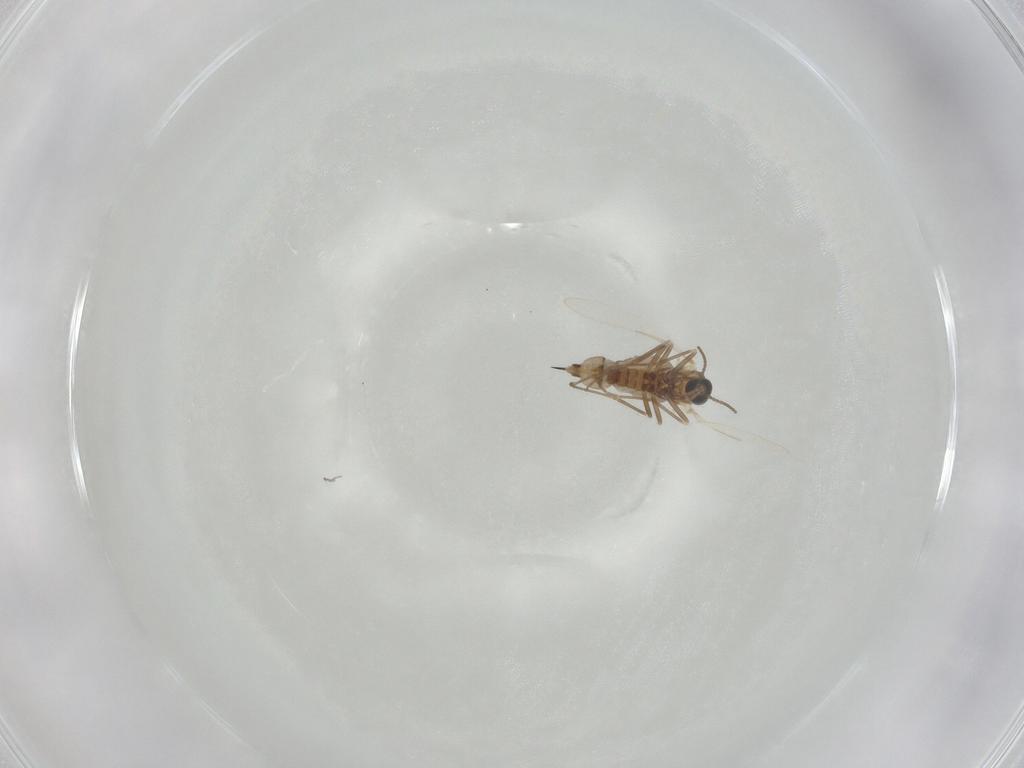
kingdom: Animalia
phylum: Arthropoda
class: Insecta
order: Diptera
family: Cecidomyiidae
